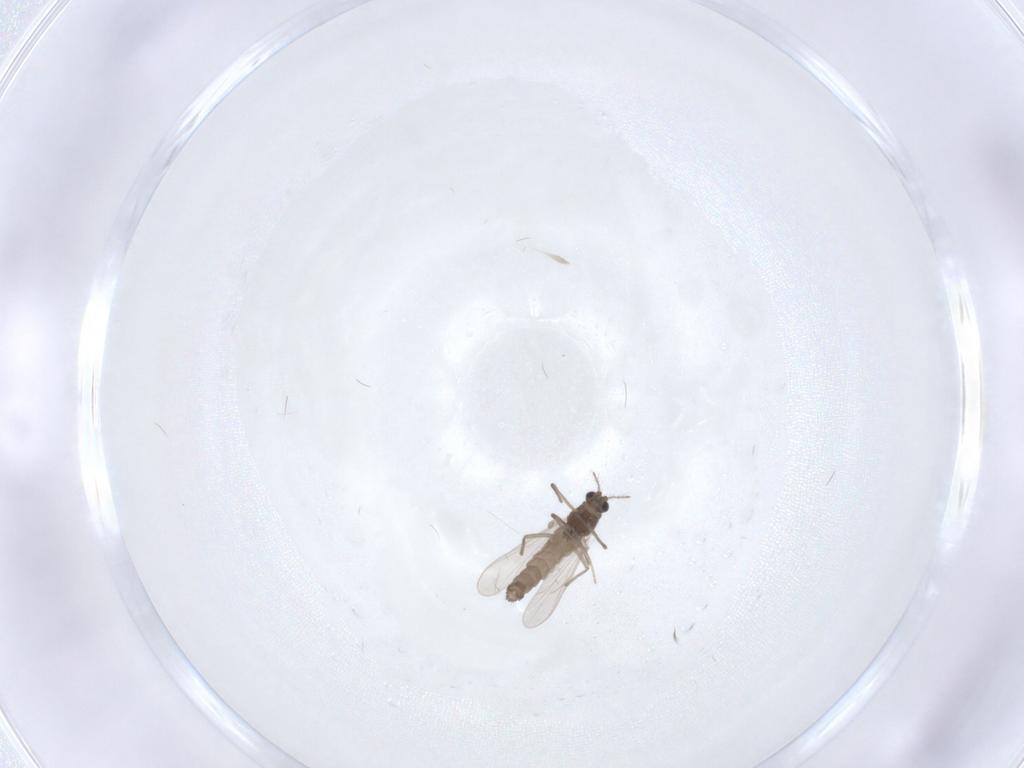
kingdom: Animalia
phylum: Arthropoda
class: Insecta
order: Diptera
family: Chironomidae
